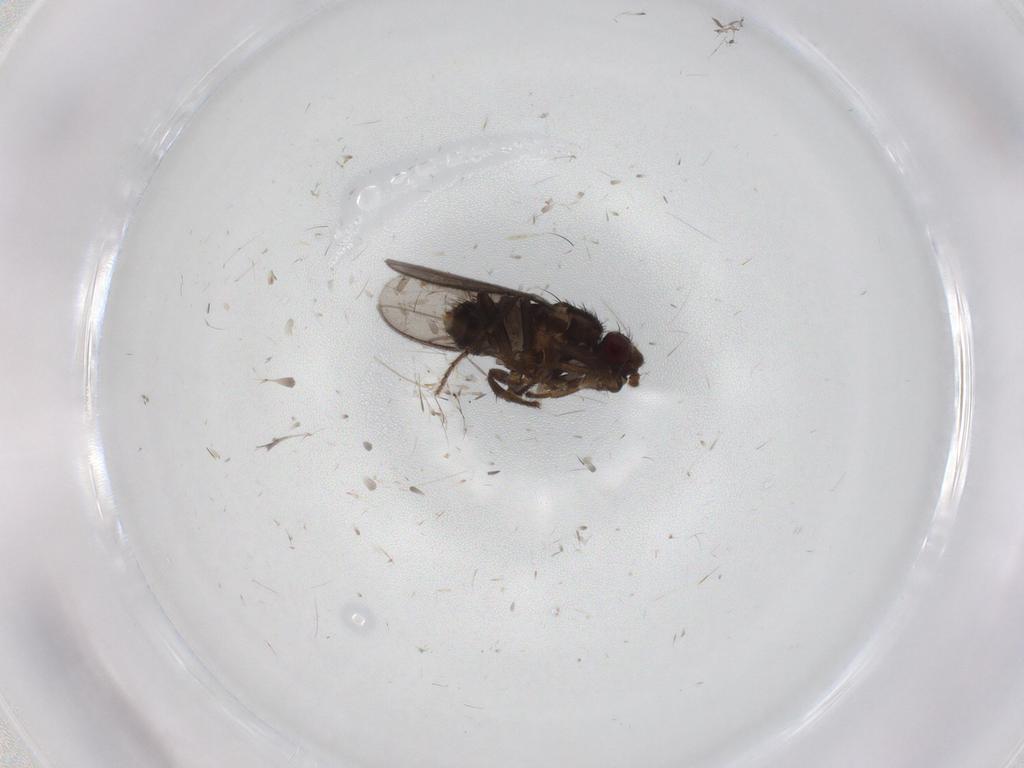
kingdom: Animalia
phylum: Arthropoda
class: Insecta
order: Diptera
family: Sphaeroceridae
